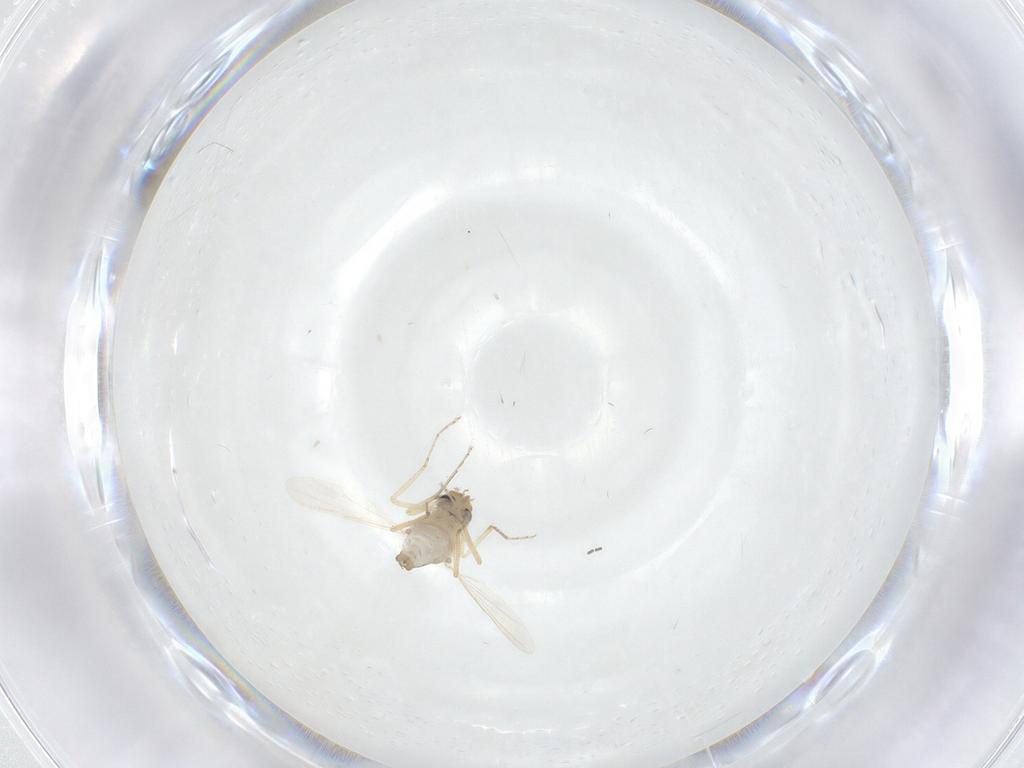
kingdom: Animalia
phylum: Arthropoda
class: Insecta
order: Diptera
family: Ceratopogonidae
